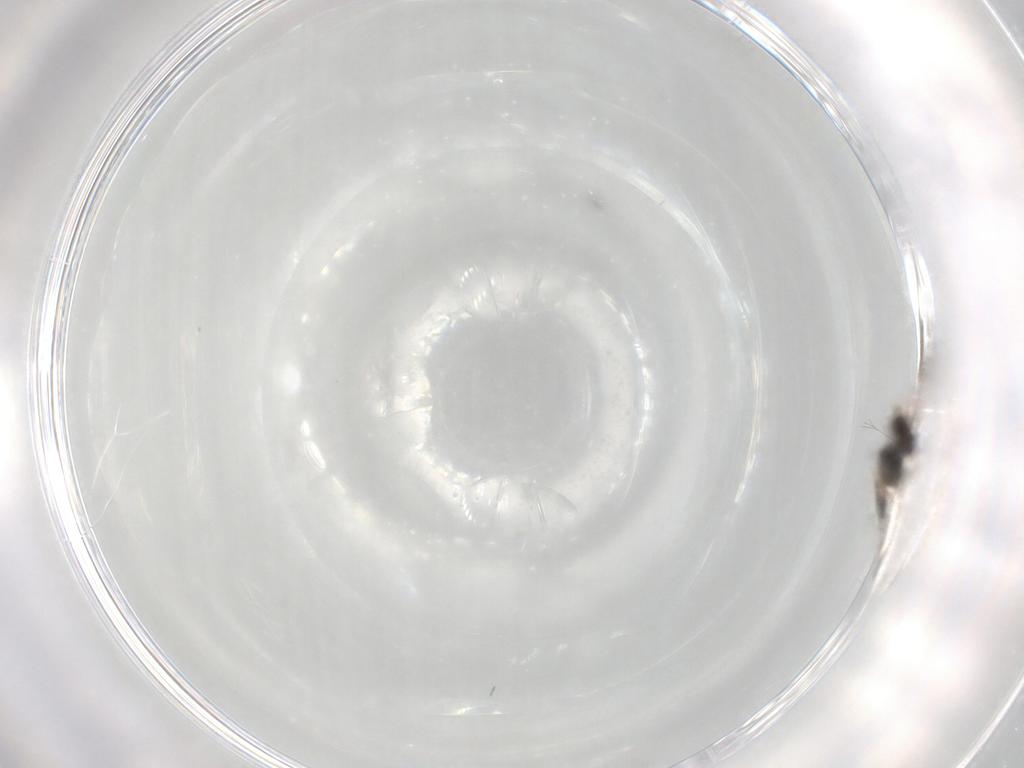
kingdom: Animalia
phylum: Arthropoda
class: Insecta
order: Hymenoptera
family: Eulophidae
